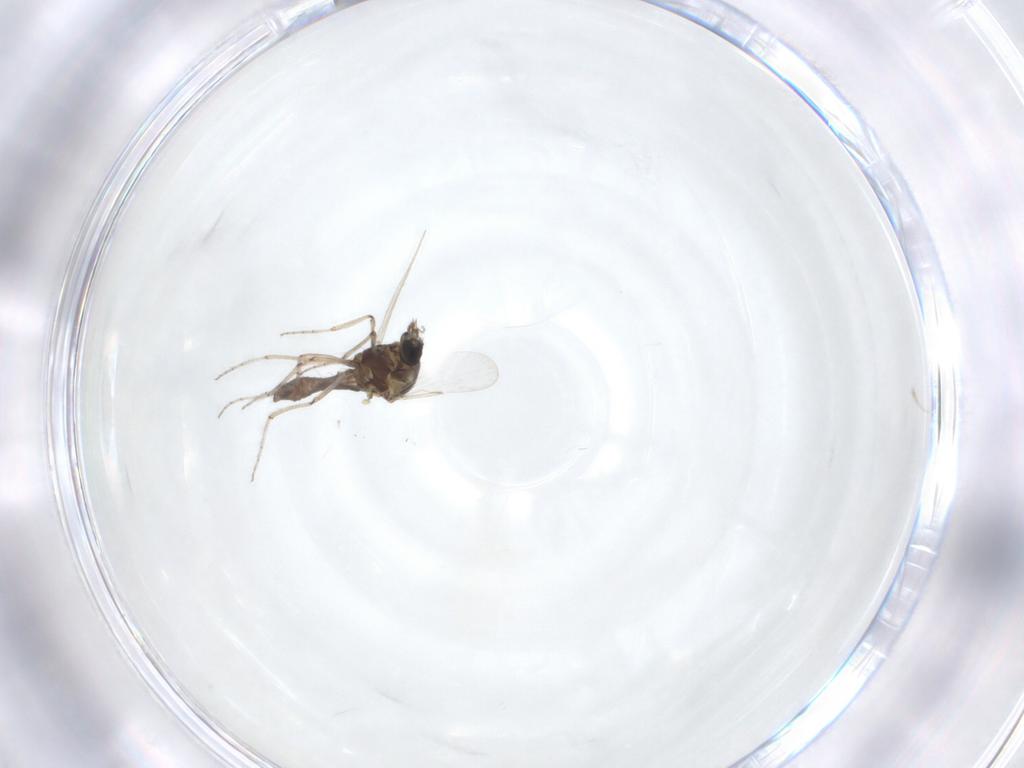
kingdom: Animalia
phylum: Arthropoda
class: Insecta
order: Diptera
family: Ceratopogonidae
